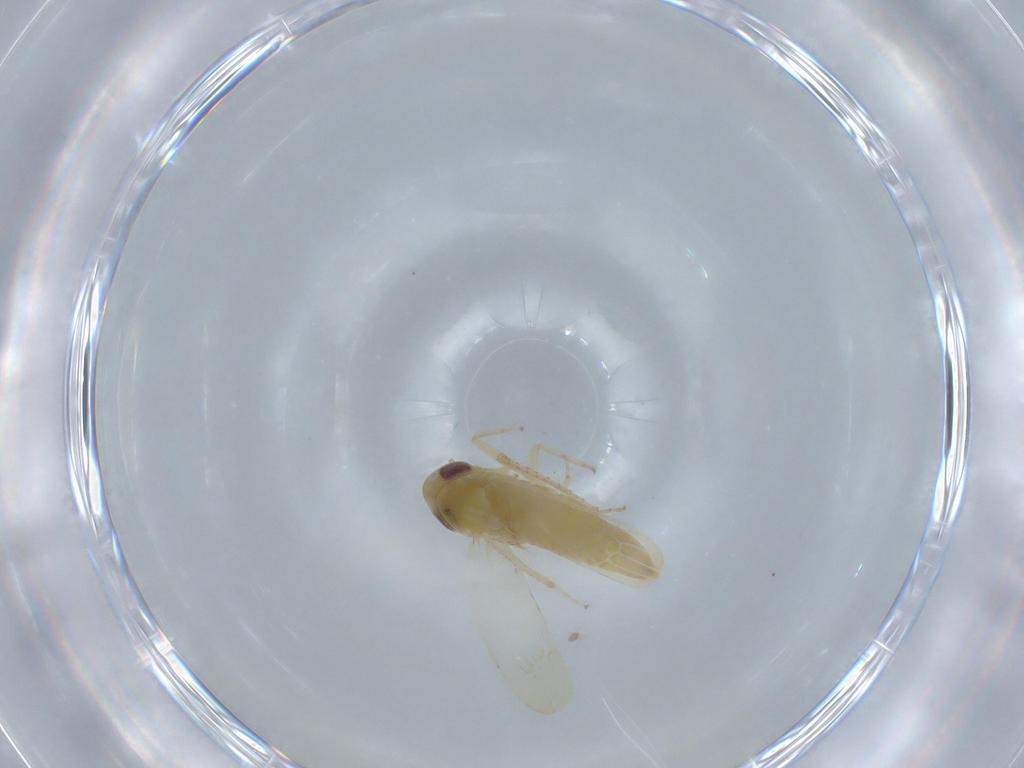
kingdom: Animalia
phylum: Arthropoda
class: Insecta
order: Hemiptera
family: Cicadellidae
